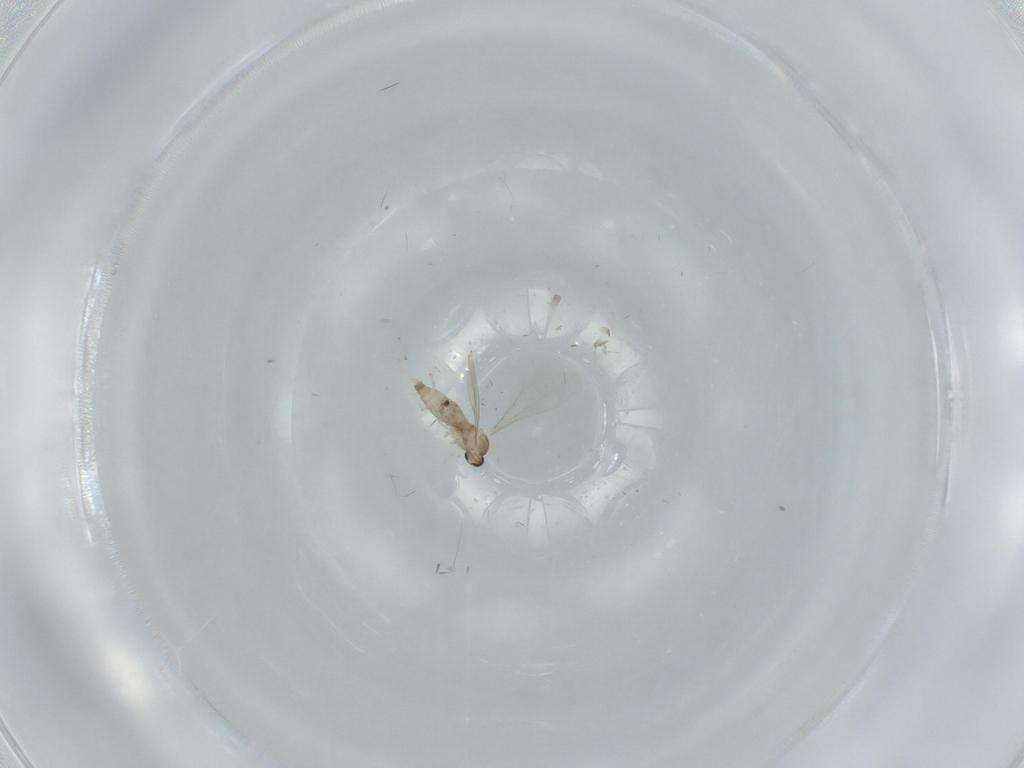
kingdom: Animalia
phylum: Arthropoda
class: Insecta
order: Diptera
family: Cecidomyiidae
